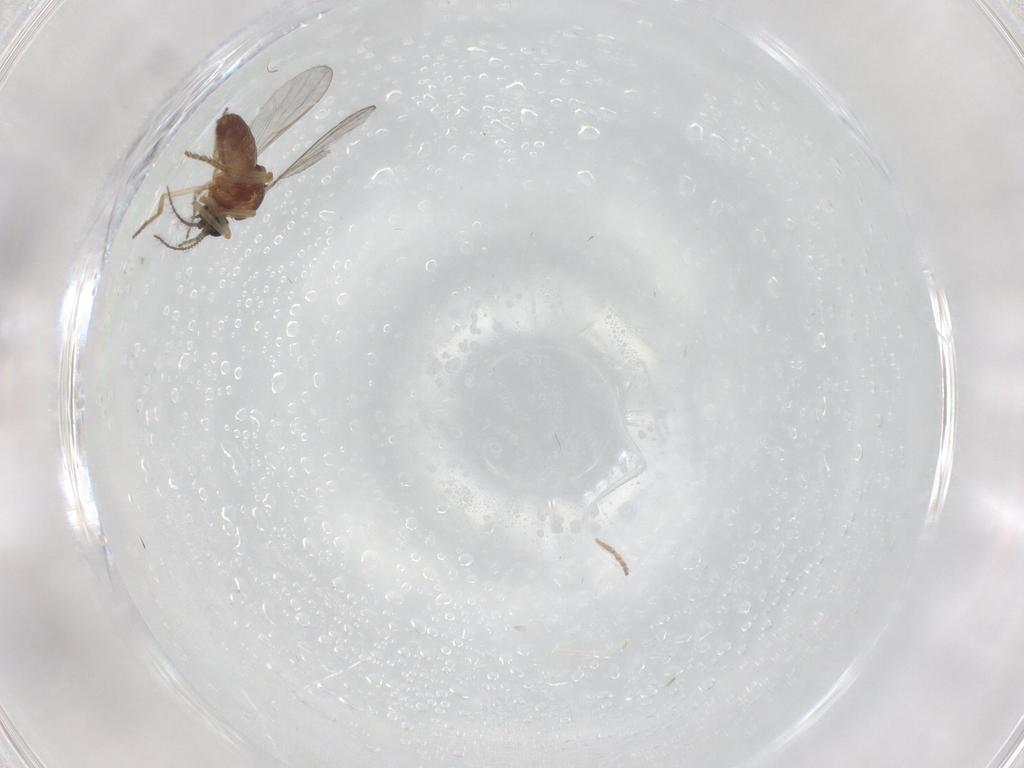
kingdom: Animalia
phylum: Arthropoda
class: Insecta
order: Diptera
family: Ceratopogonidae
